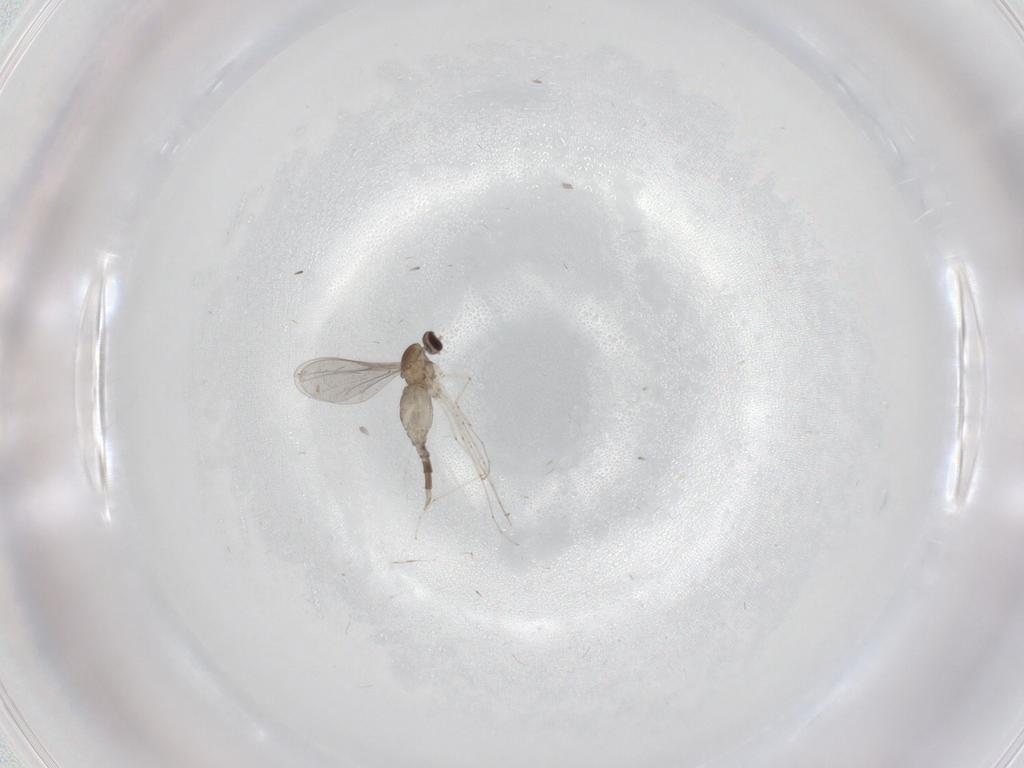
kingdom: Animalia
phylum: Arthropoda
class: Insecta
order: Diptera
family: Cecidomyiidae
